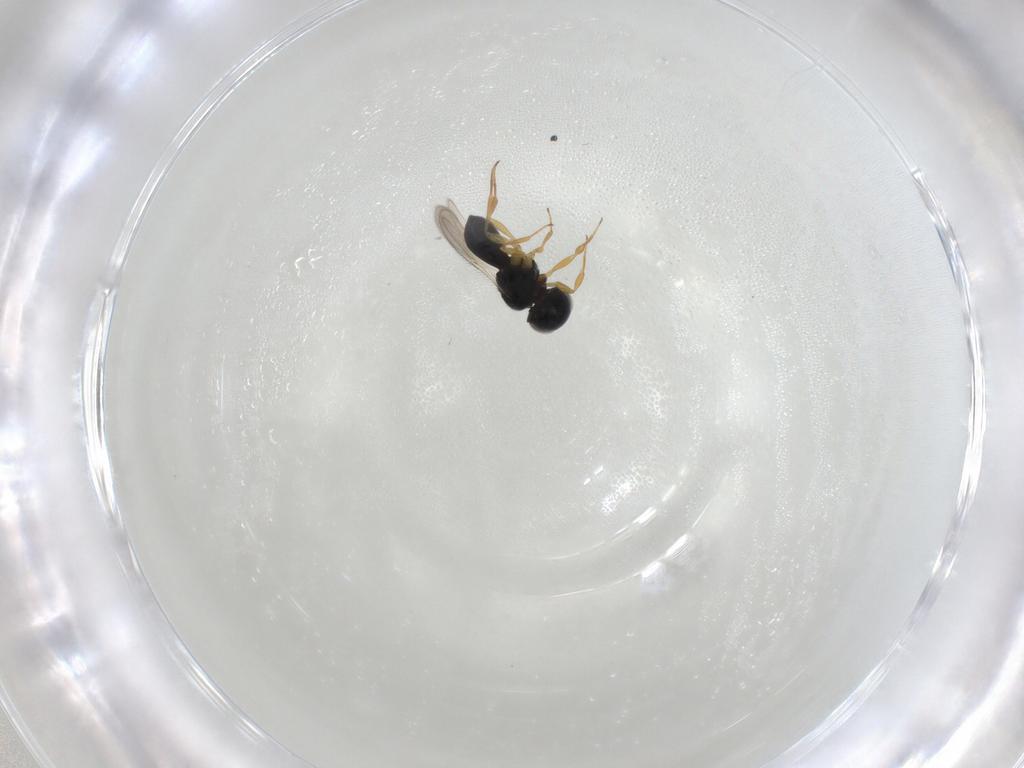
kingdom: Animalia
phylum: Arthropoda
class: Insecta
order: Hymenoptera
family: Scelionidae
